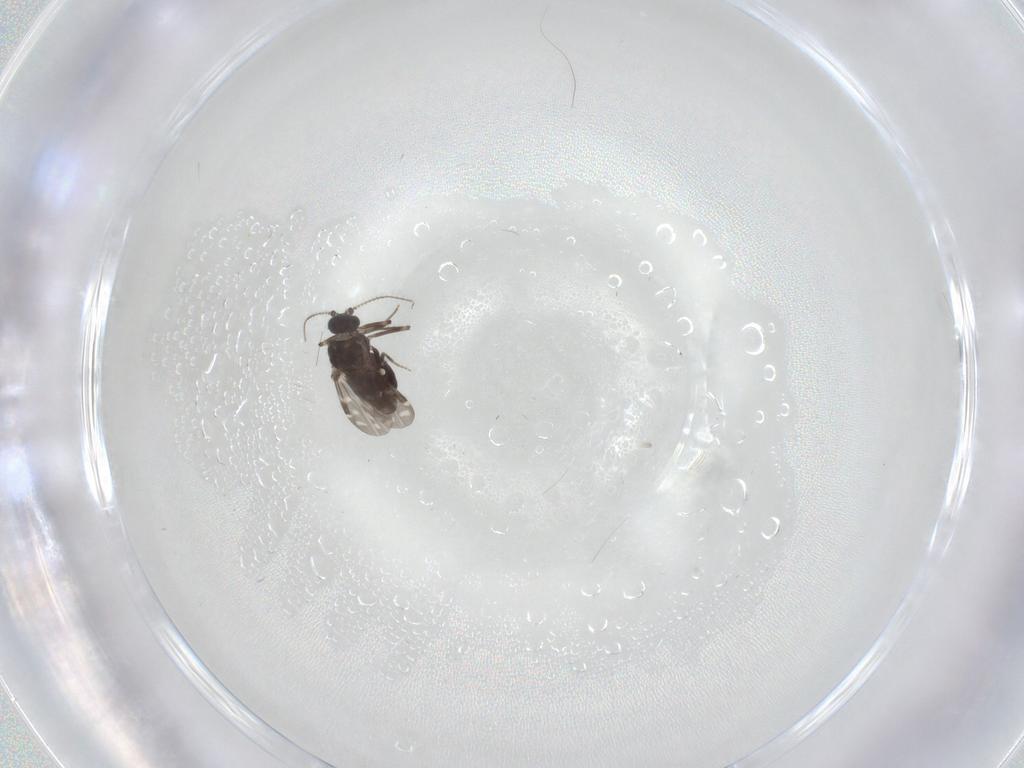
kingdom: Animalia
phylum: Arthropoda
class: Insecta
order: Diptera
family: Ceratopogonidae
